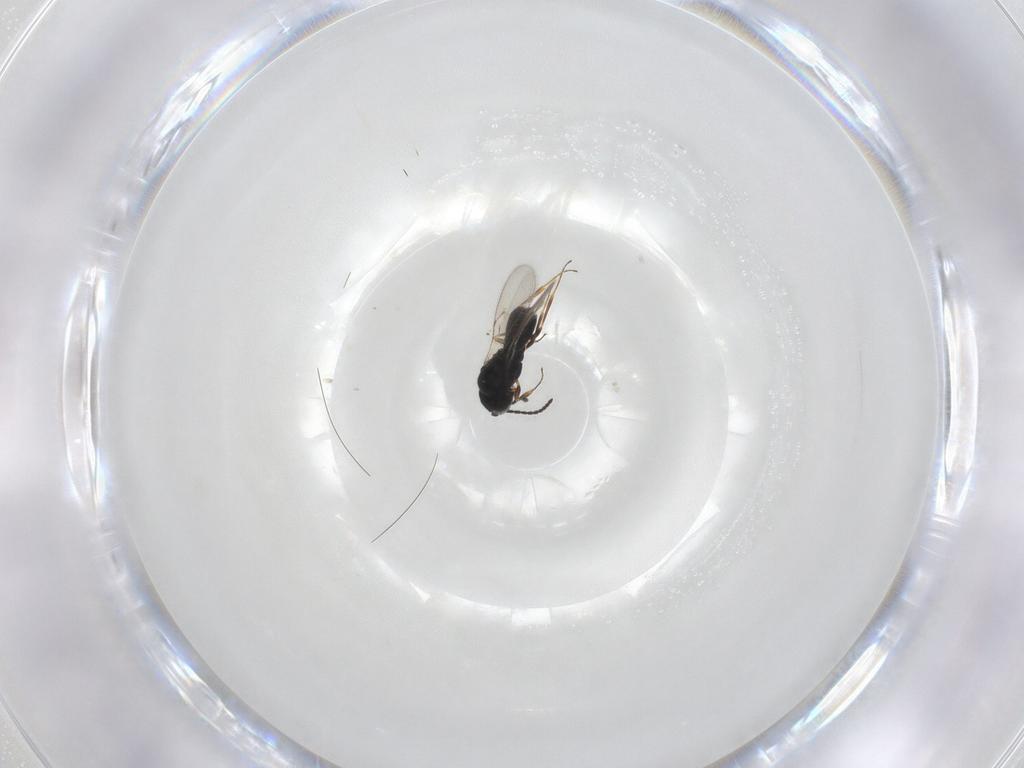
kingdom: Animalia
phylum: Arthropoda
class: Insecta
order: Hymenoptera
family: Scelionidae
